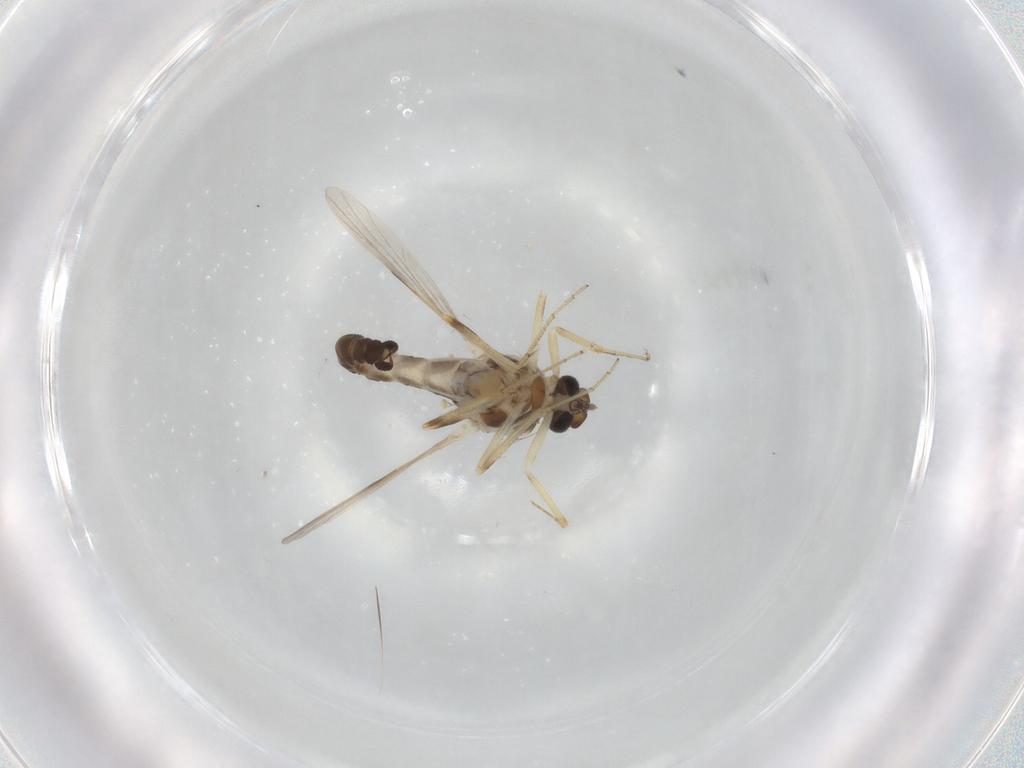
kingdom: Animalia
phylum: Arthropoda
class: Insecta
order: Diptera
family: Ceratopogonidae
